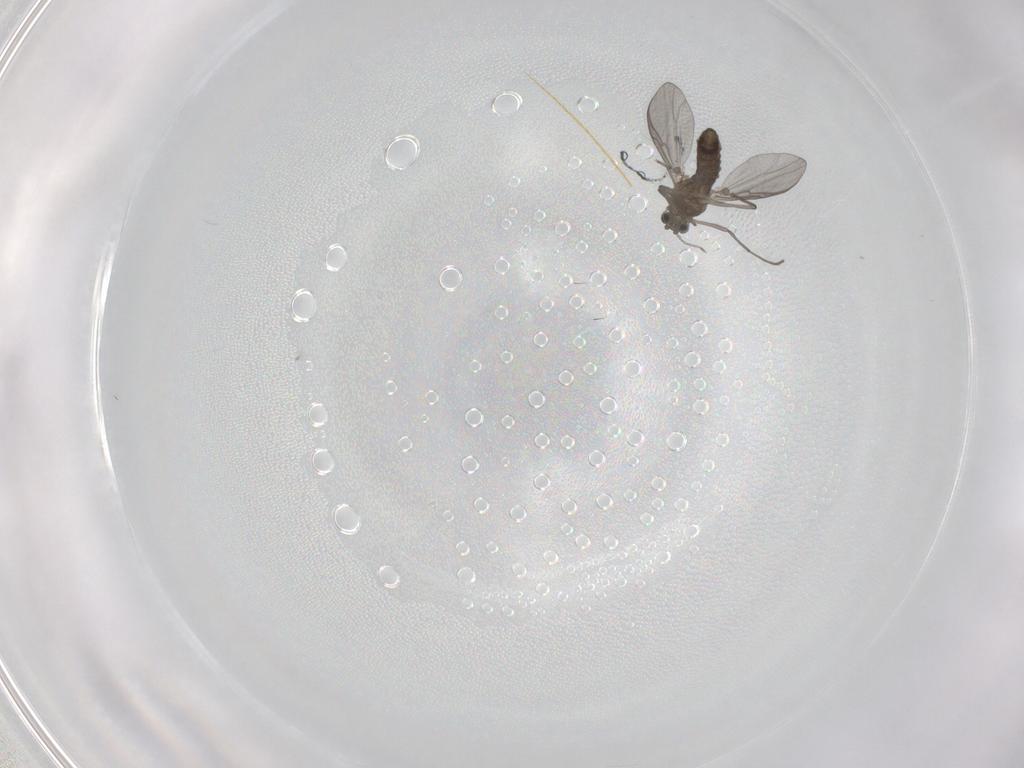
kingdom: Animalia
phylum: Arthropoda
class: Insecta
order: Diptera
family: Chironomidae
